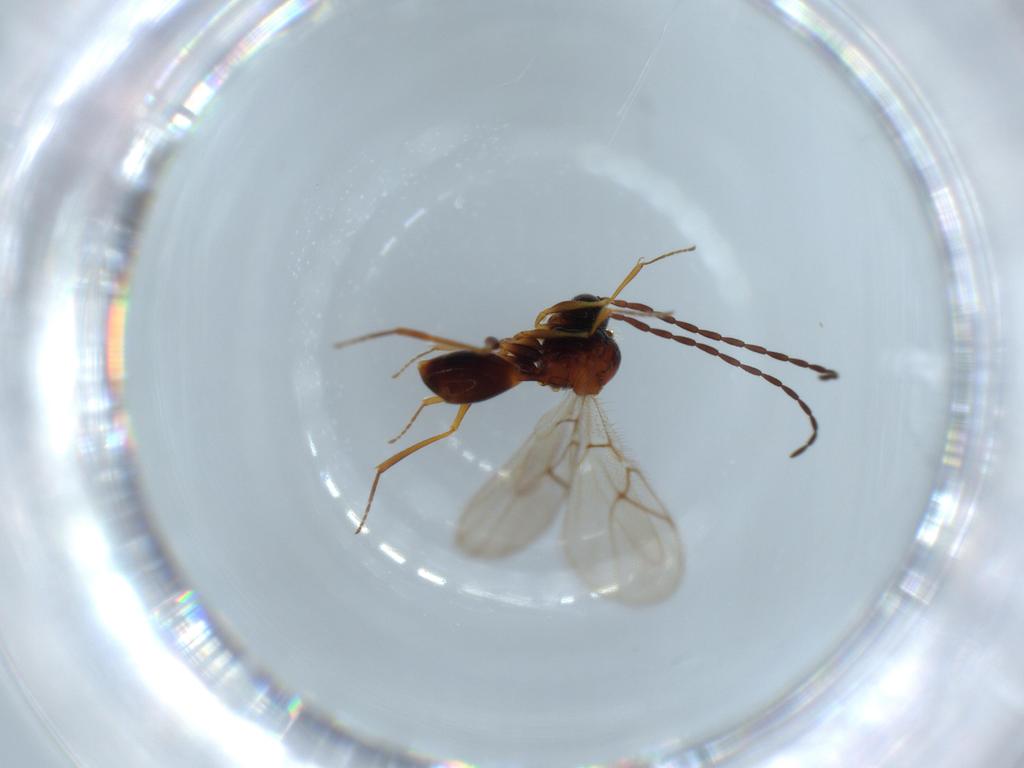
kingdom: Animalia
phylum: Arthropoda
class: Insecta
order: Hymenoptera
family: Figitidae
